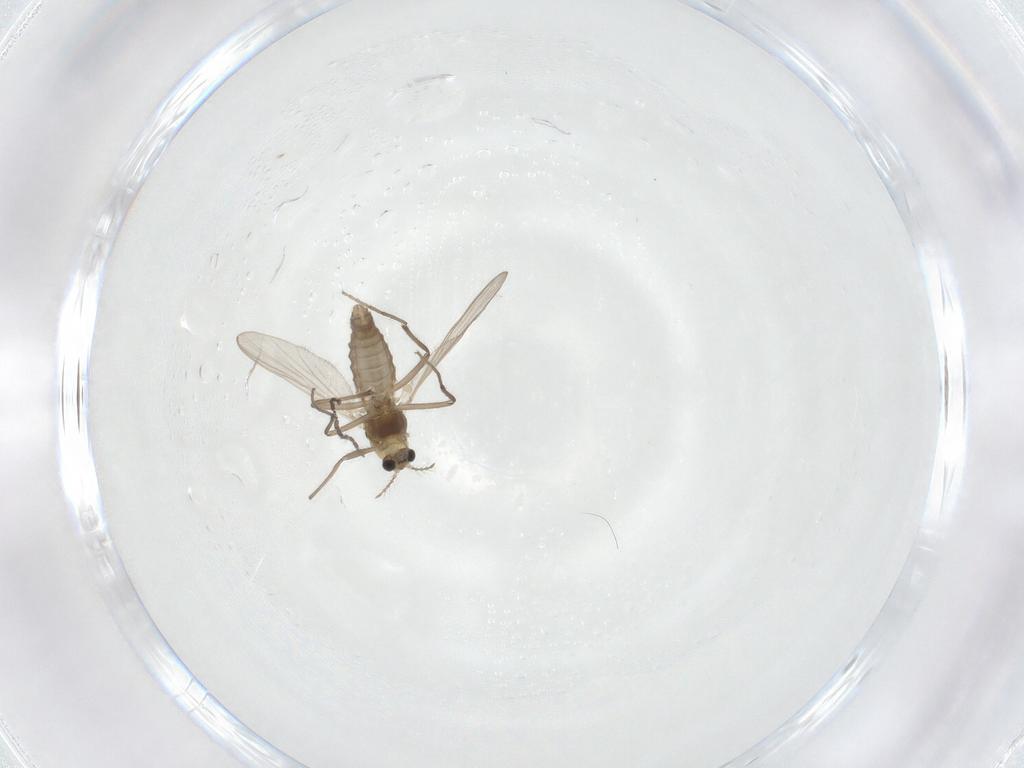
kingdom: Animalia
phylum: Arthropoda
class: Insecta
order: Diptera
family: Chironomidae
